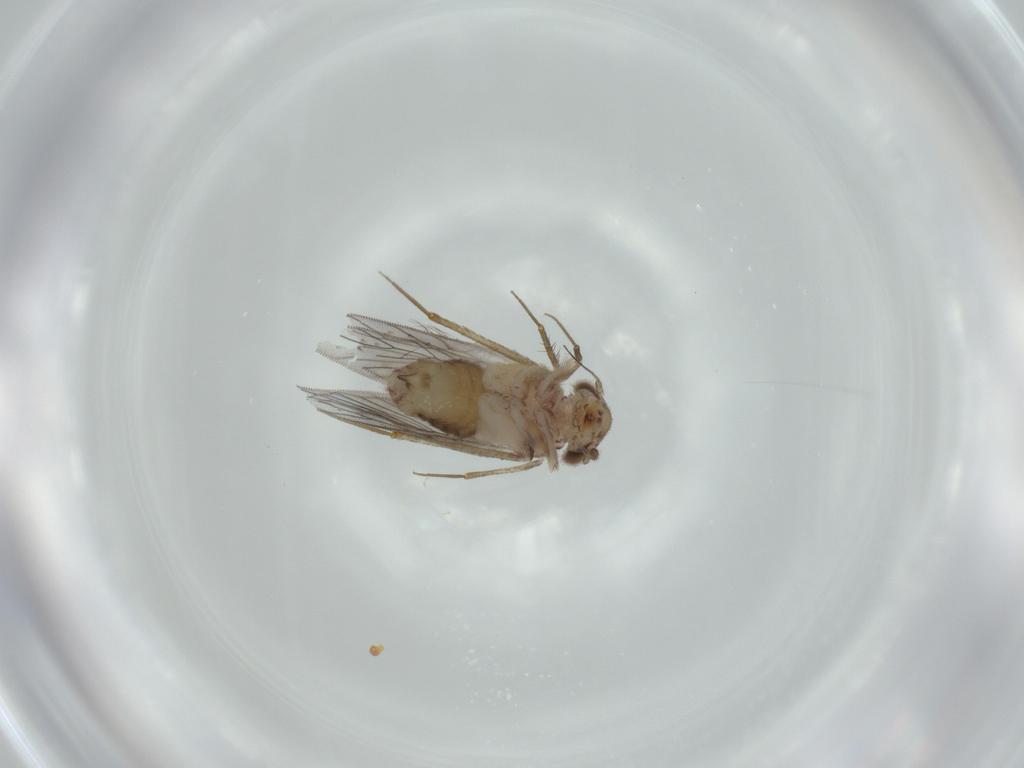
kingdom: Animalia
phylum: Arthropoda
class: Insecta
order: Psocodea
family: Lepidopsocidae
